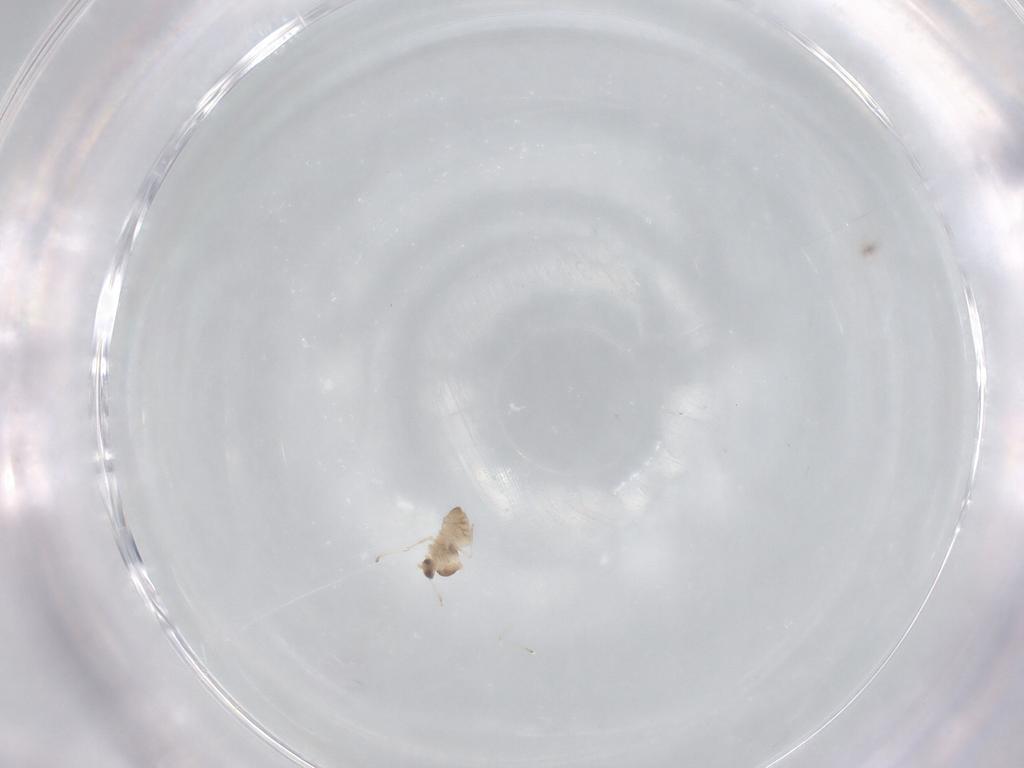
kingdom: Animalia
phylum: Arthropoda
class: Insecta
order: Diptera
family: Cecidomyiidae
